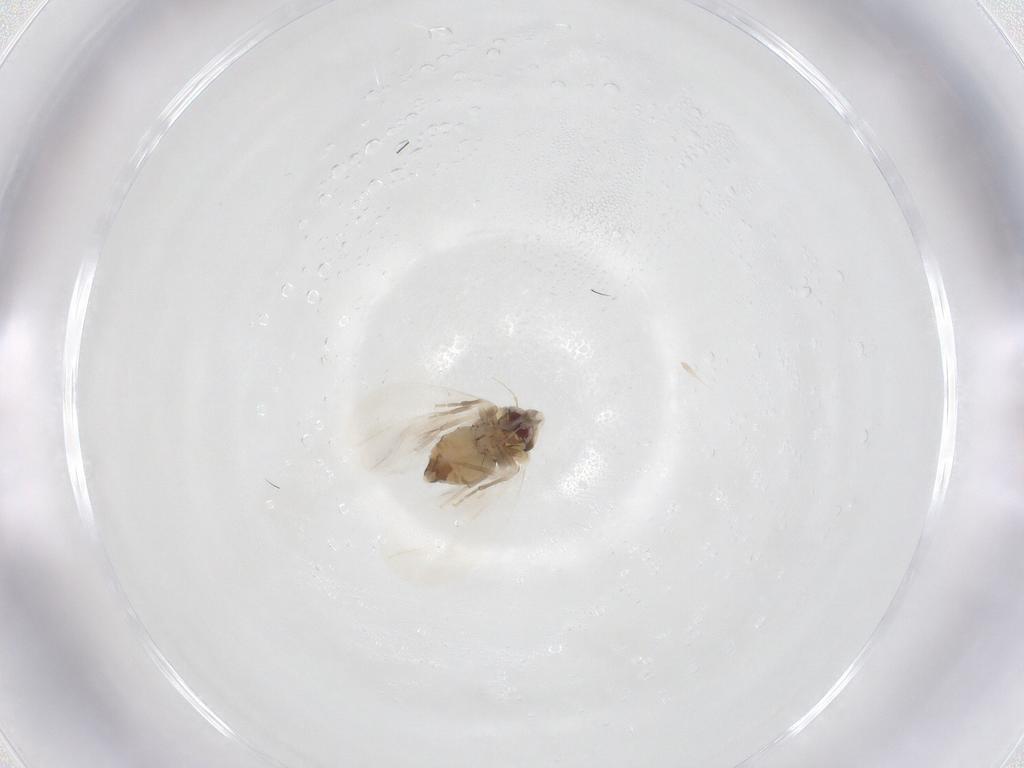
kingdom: Animalia
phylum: Arthropoda
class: Insecta
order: Hemiptera
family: Aleyrodidae
